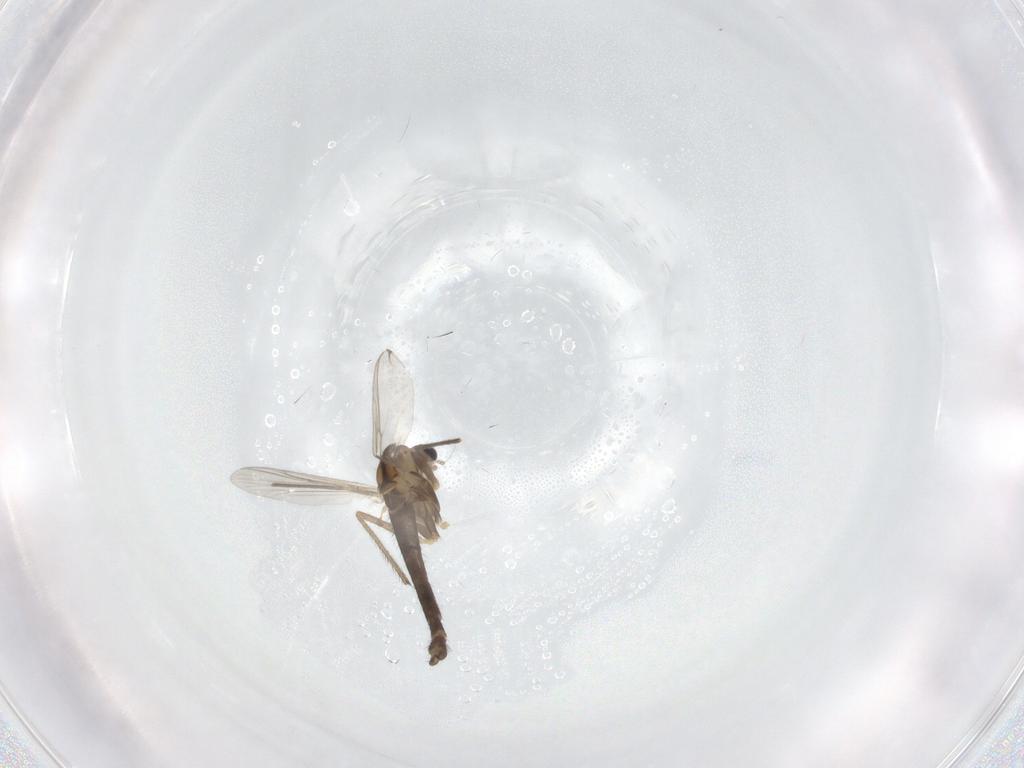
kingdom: Animalia
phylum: Arthropoda
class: Insecta
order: Diptera
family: Chironomidae
